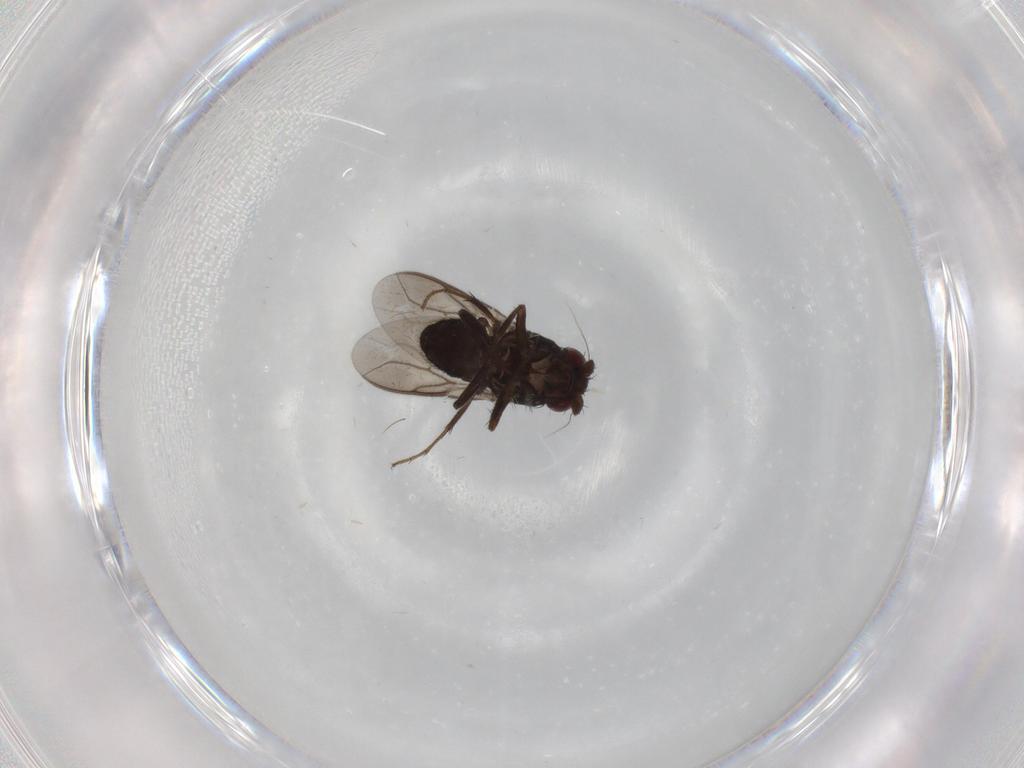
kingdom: Animalia
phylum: Arthropoda
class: Insecta
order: Diptera
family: Sphaeroceridae
